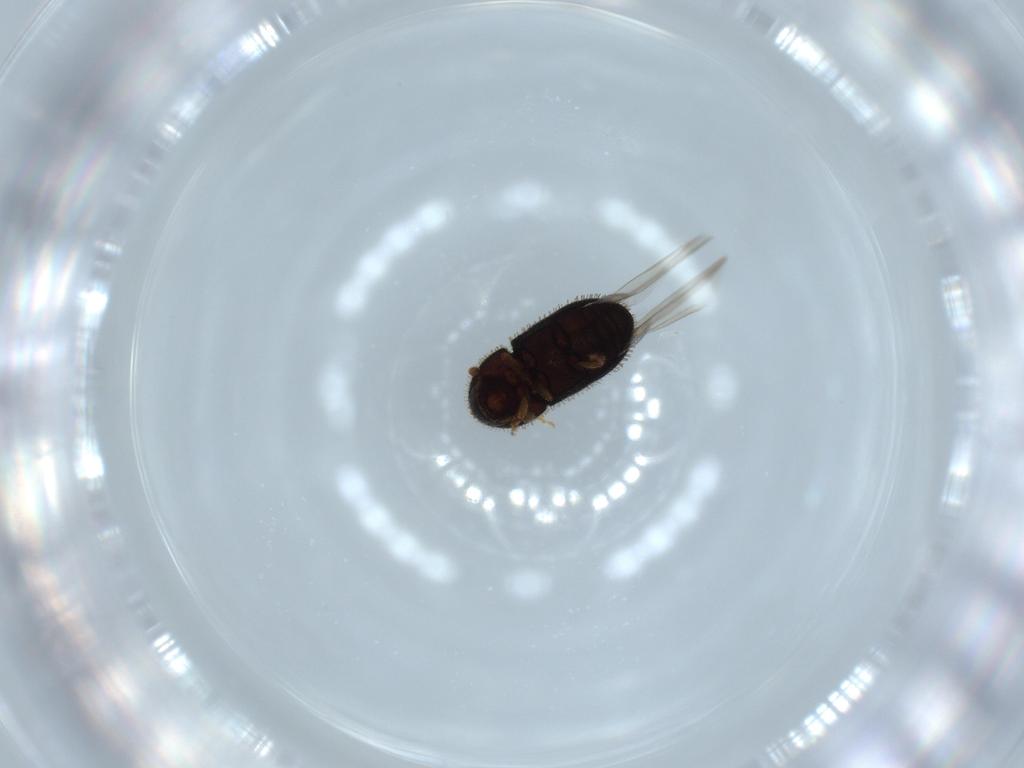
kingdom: Animalia
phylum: Arthropoda
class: Insecta
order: Coleoptera
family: Curculionidae
